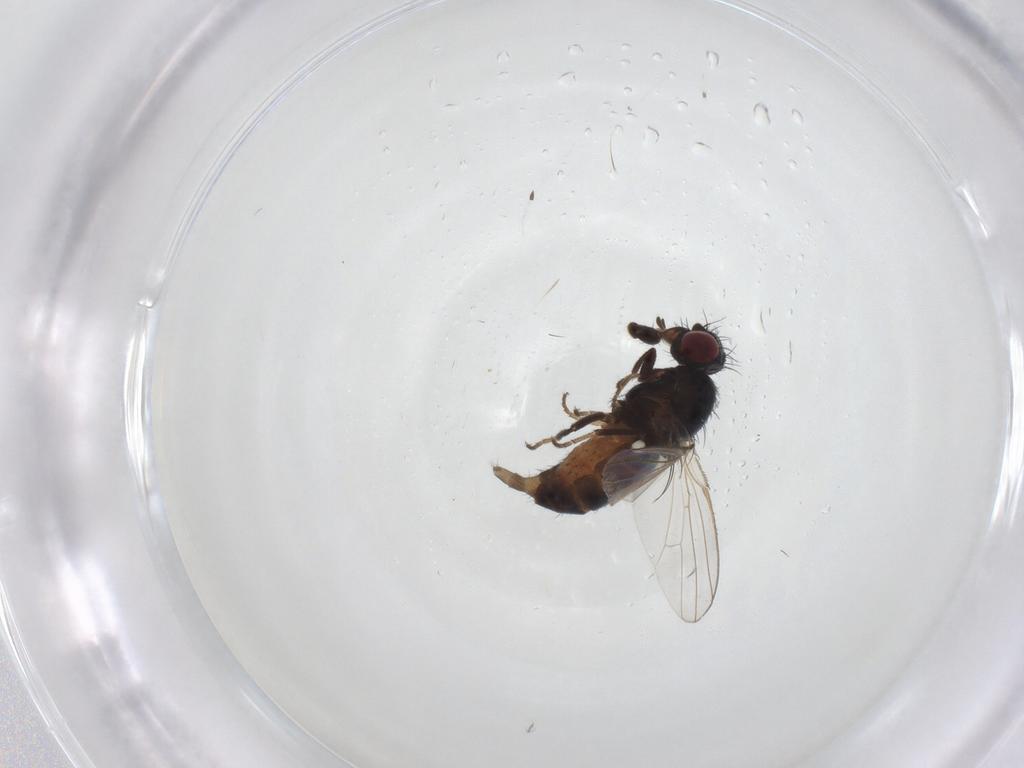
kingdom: Animalia
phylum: Arthropoda
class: Insecta
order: Diptera
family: Carnidae
